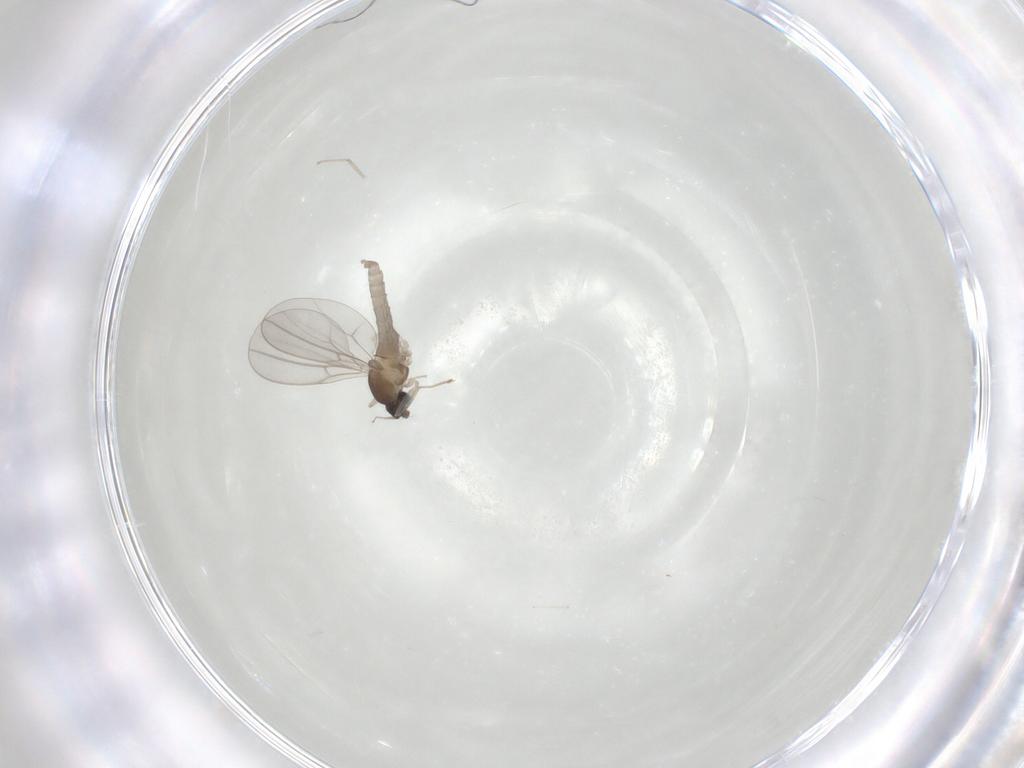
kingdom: Animalia
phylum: Arthropoda
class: Insecta
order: Diptera
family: Cecidomyiidae
